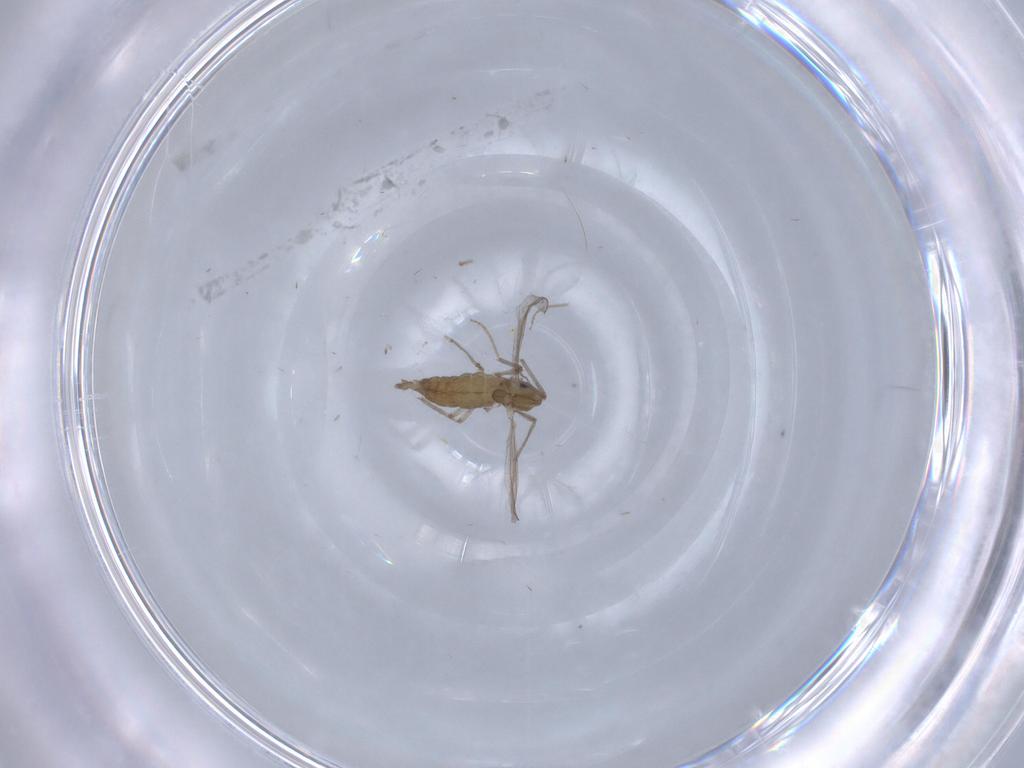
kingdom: Animalia
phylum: Arthropoda
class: Insecta
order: Diptera
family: Chironomidae
